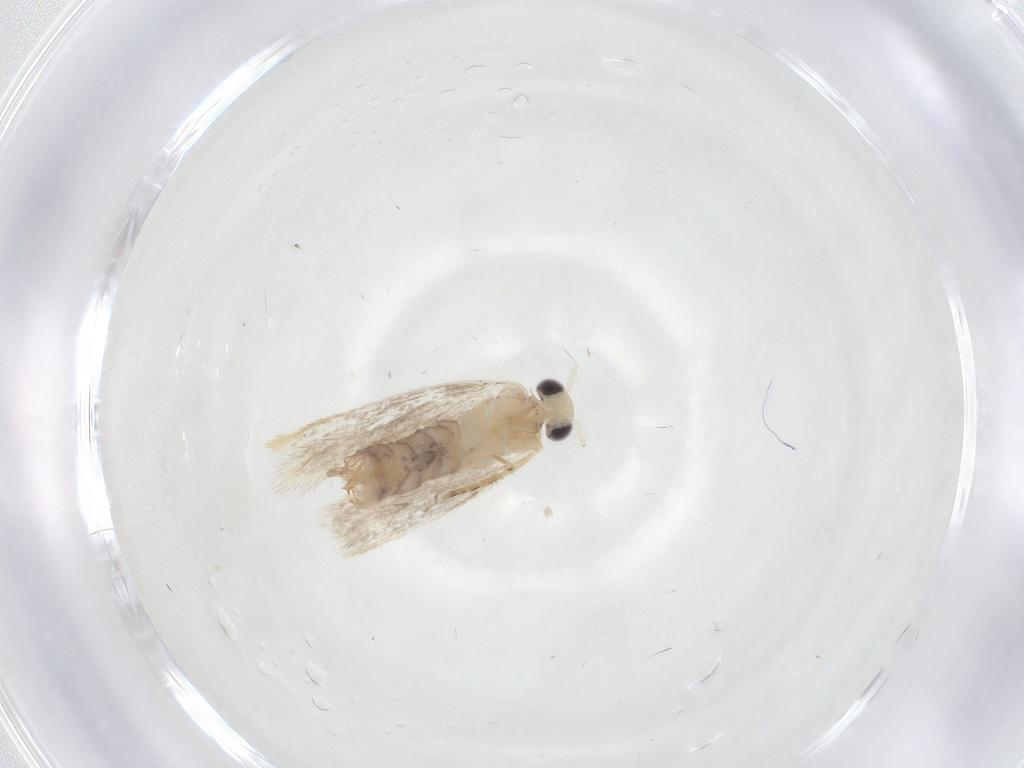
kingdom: Animalia
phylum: Arthropoda
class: Insecta
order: Lepidoptera
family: Dryadaulidae
